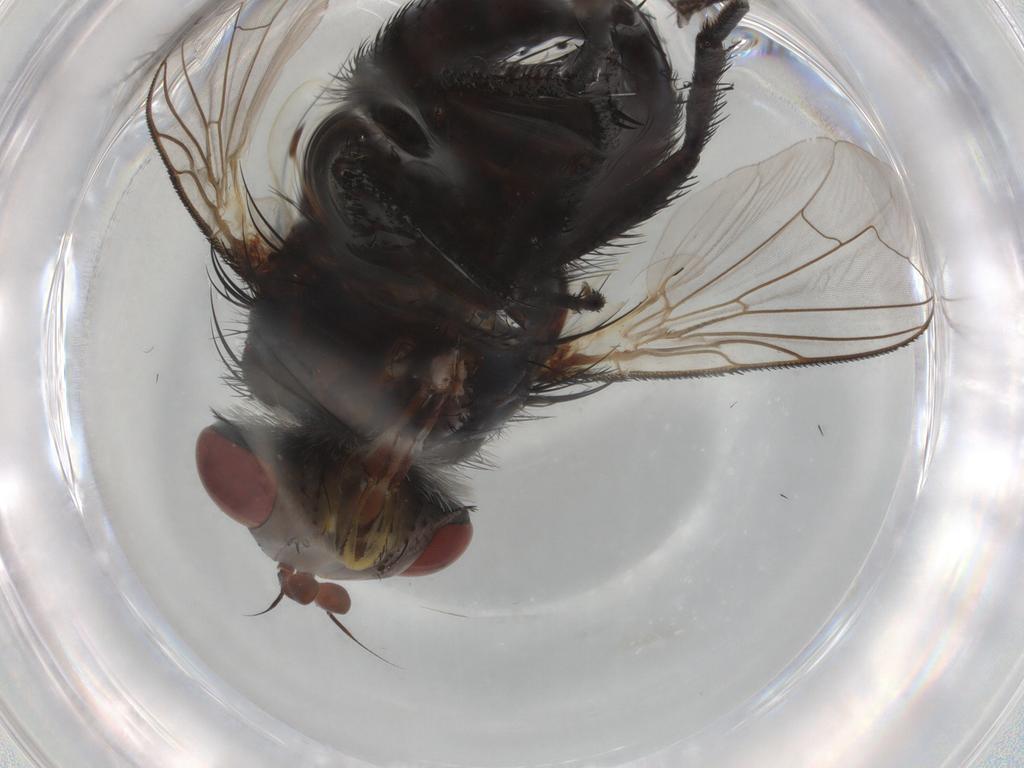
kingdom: Animalia
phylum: Arthropoda
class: Insecta
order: Diptera
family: Tachinidae
